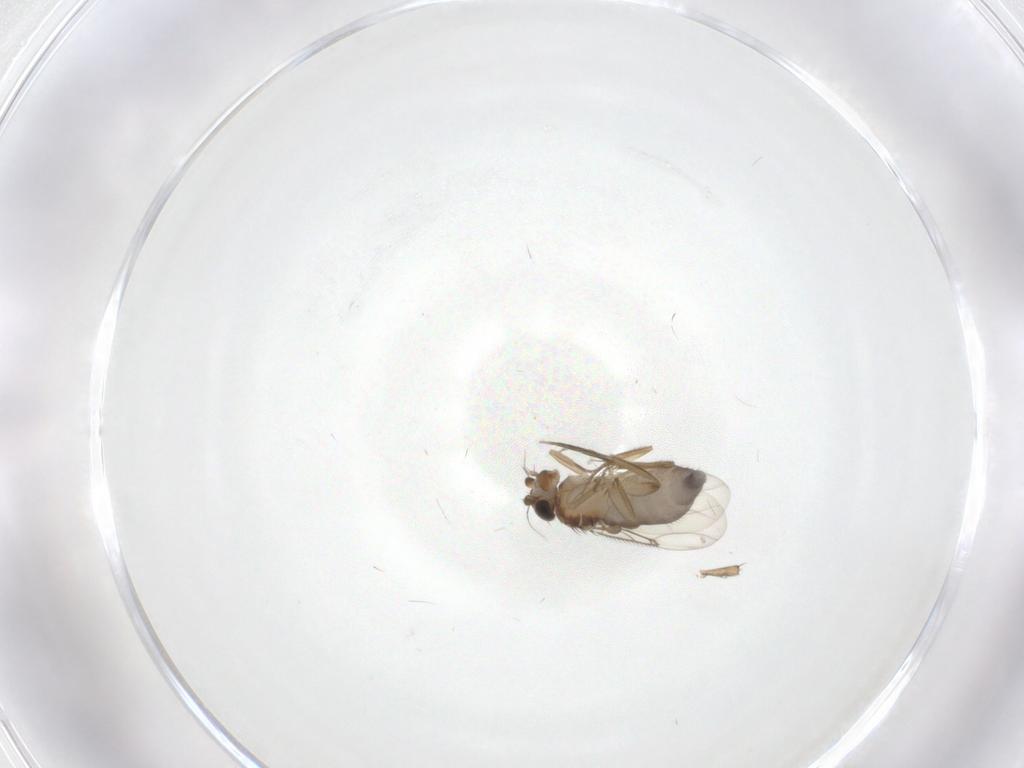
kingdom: Animalia
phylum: Arthropoda
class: Insecta
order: Diptera
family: Phoridae
